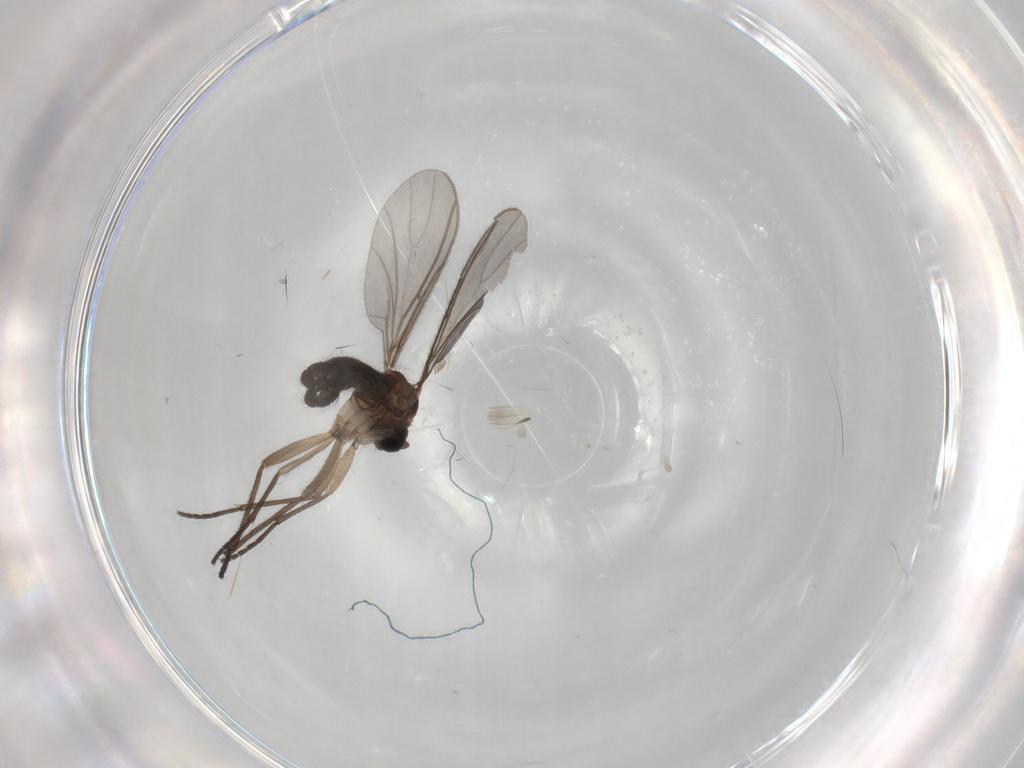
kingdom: Animalia
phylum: Arthropoda
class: Insecta
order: Diptera
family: Sciaridae
